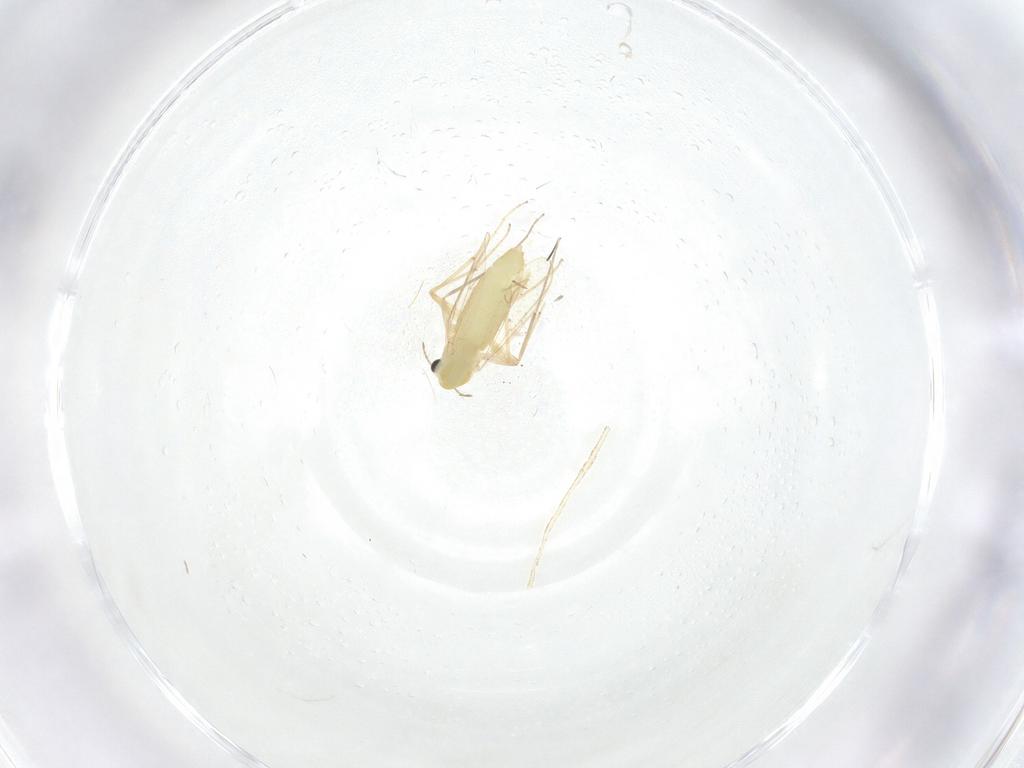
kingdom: Animalia
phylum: Arthropoda
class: Insecta
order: Diptera
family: Chironomidae
